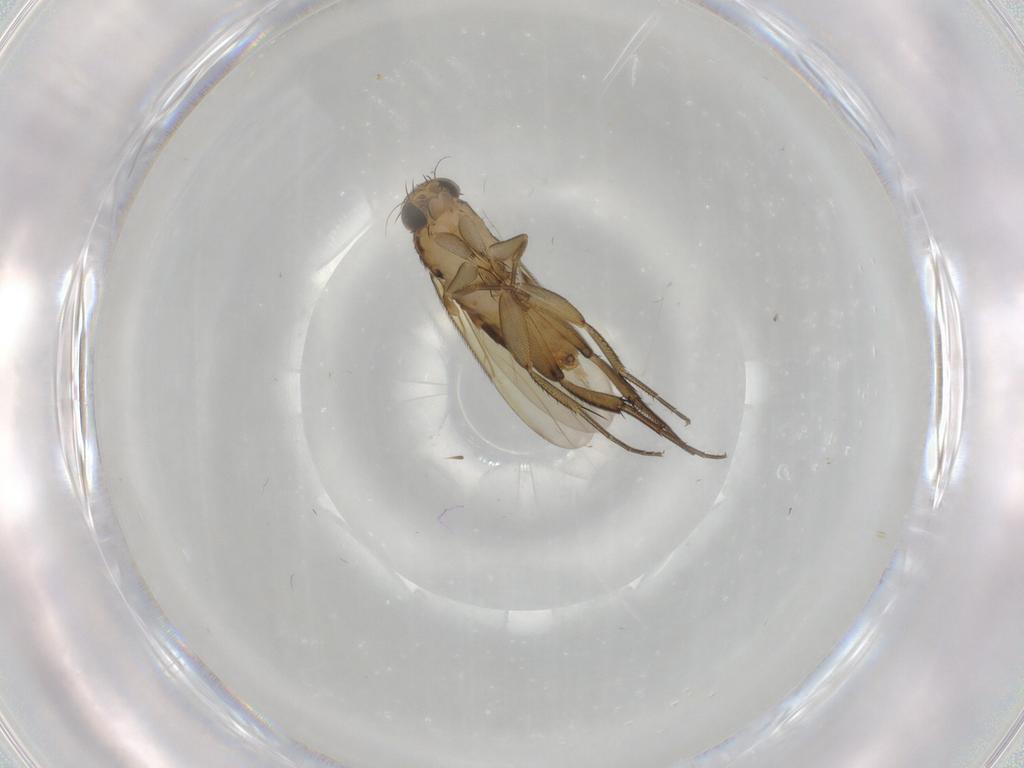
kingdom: Animalia
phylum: Arthropoda
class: Insecta
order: Diptera
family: Phoridae
